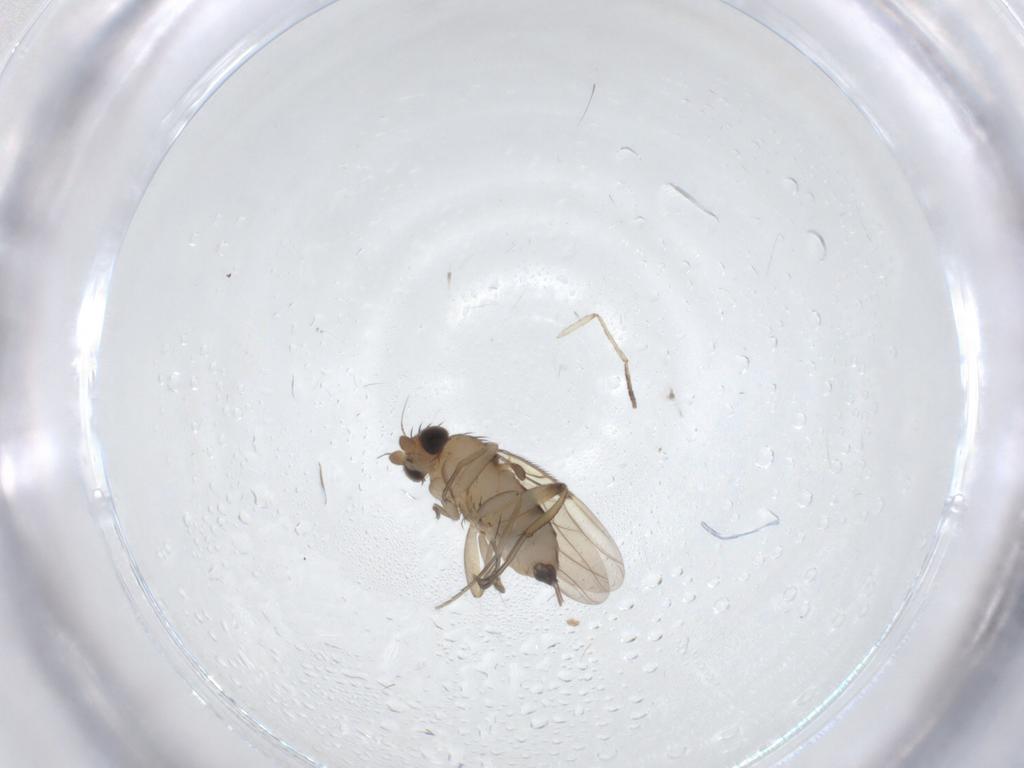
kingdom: Animalia
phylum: Arthropoda
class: Insecta
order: Diptera
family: Phoridae
